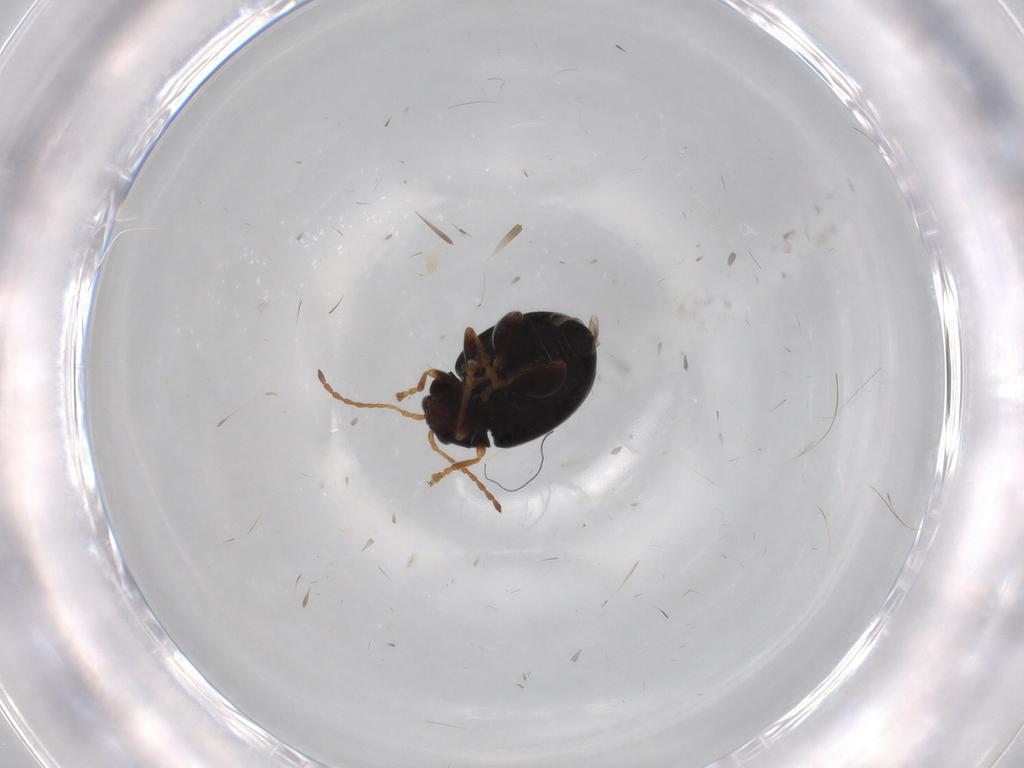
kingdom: Animalia
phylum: Arthropoda
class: Insecta
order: Coleoptera
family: Chrysomelidae
